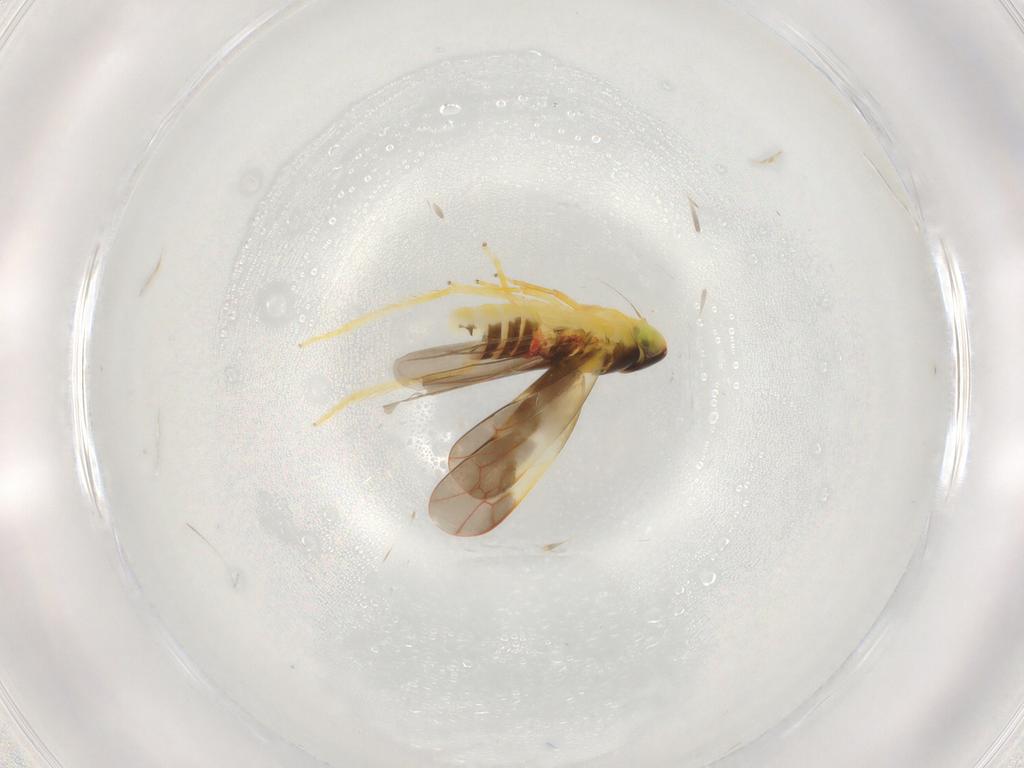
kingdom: Animalia
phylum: Arthropoda
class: Insecta
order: Hemiptera
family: Cicadellidae
